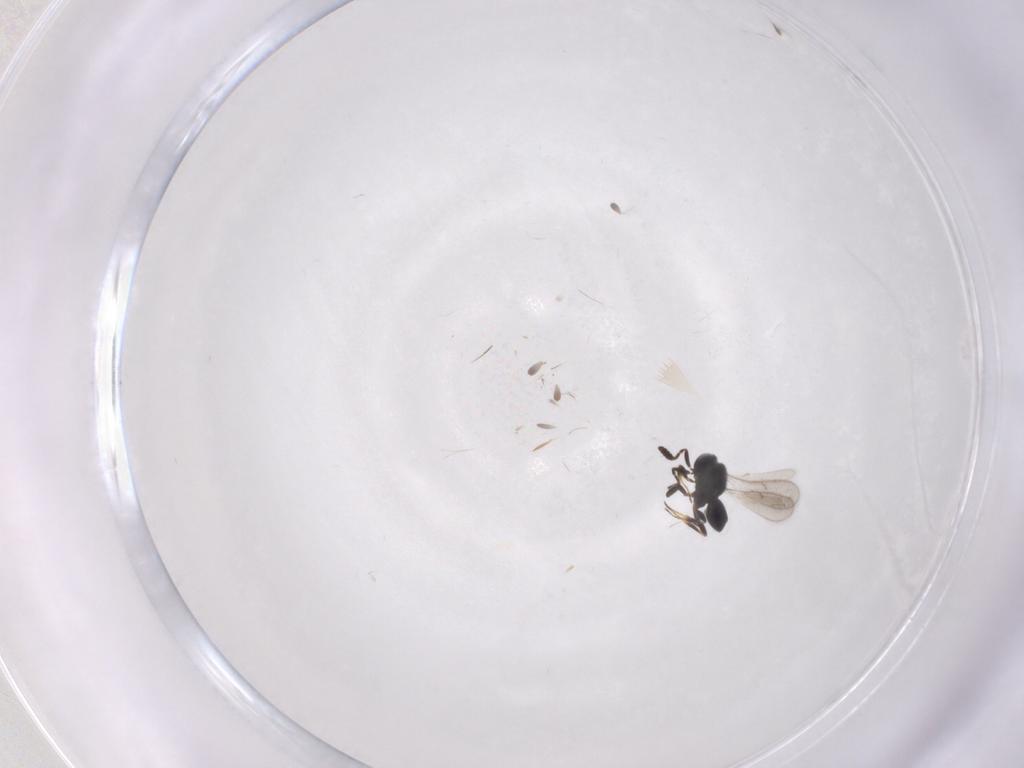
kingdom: Animalia
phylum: Arthropoda
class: Insecta
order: Hymenoptera
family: Scelionidae
